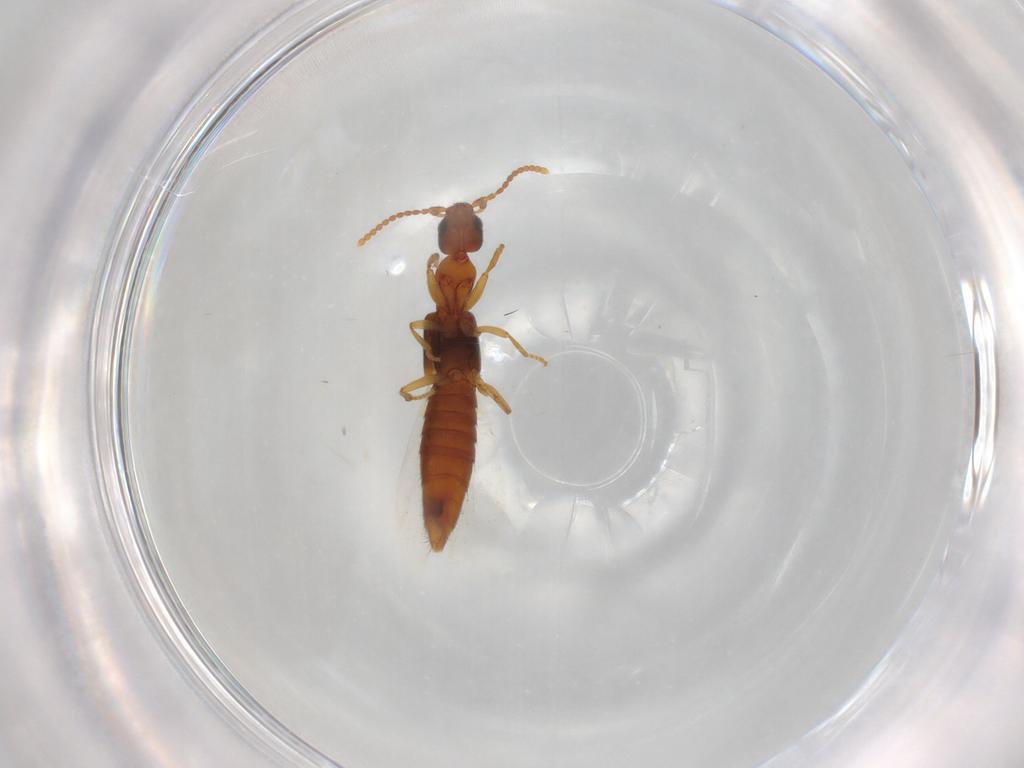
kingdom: Animalia
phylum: Arthropoda
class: Insecta
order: Coleoptera
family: Staphylinidae
